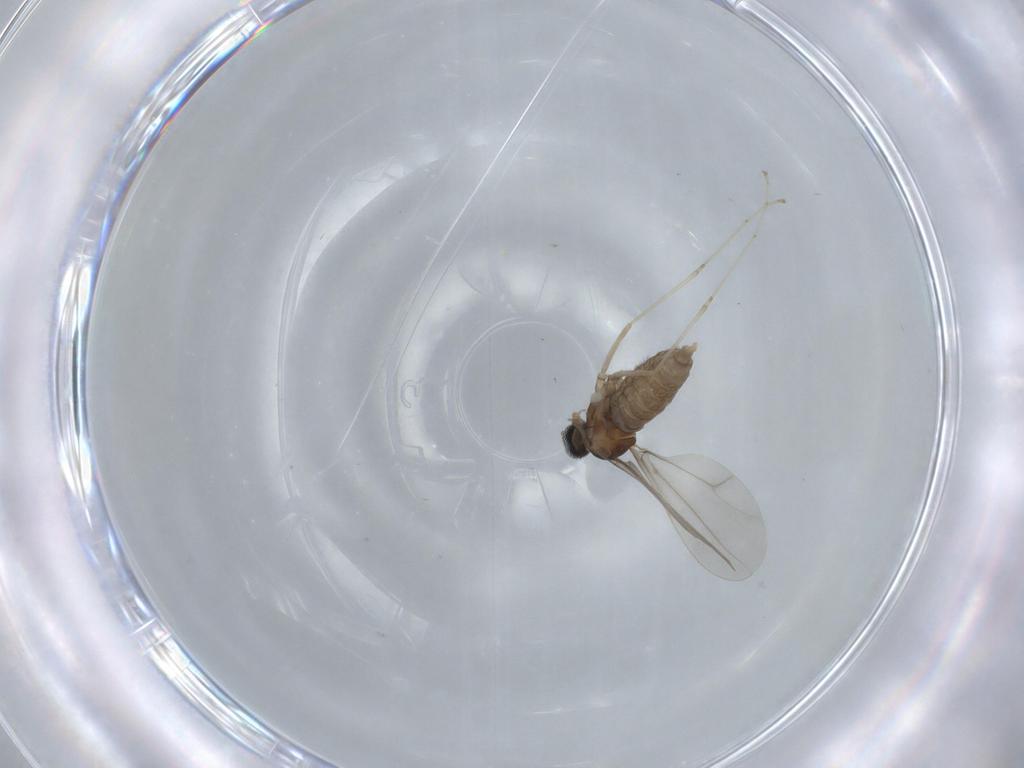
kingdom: Animalia
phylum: Arthropoda
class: Insecta
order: Diptera
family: Cecidomyiidae
